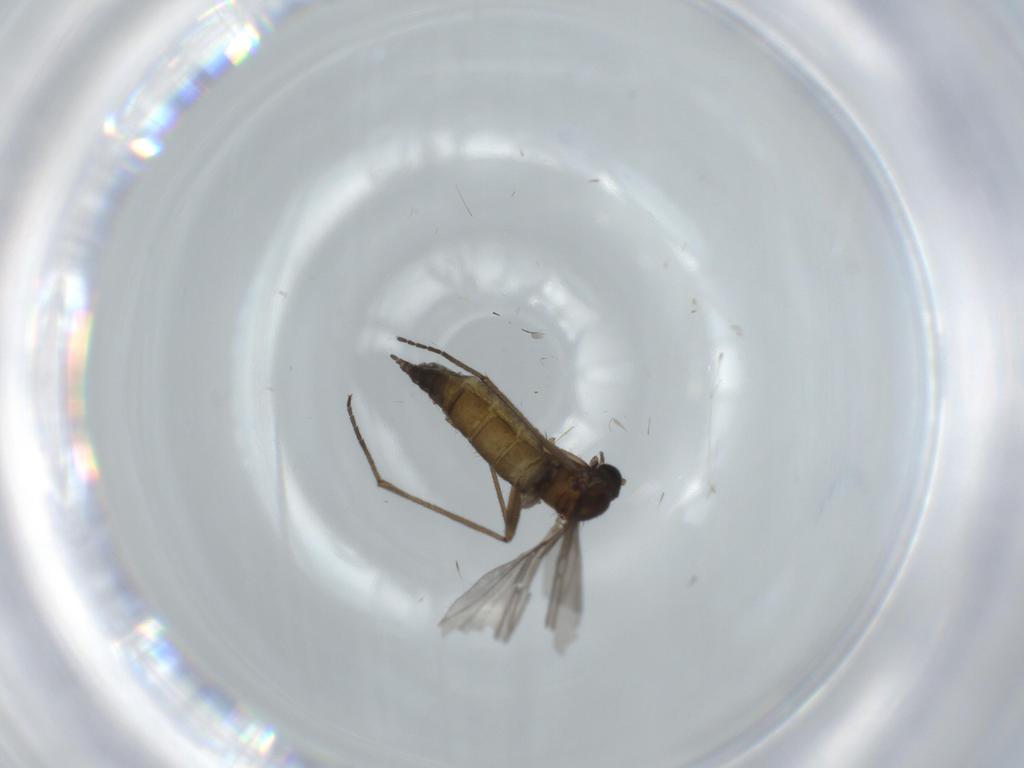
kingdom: Animalia
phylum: Arthropoda
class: Insecta
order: Diptera
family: Sciaridae
